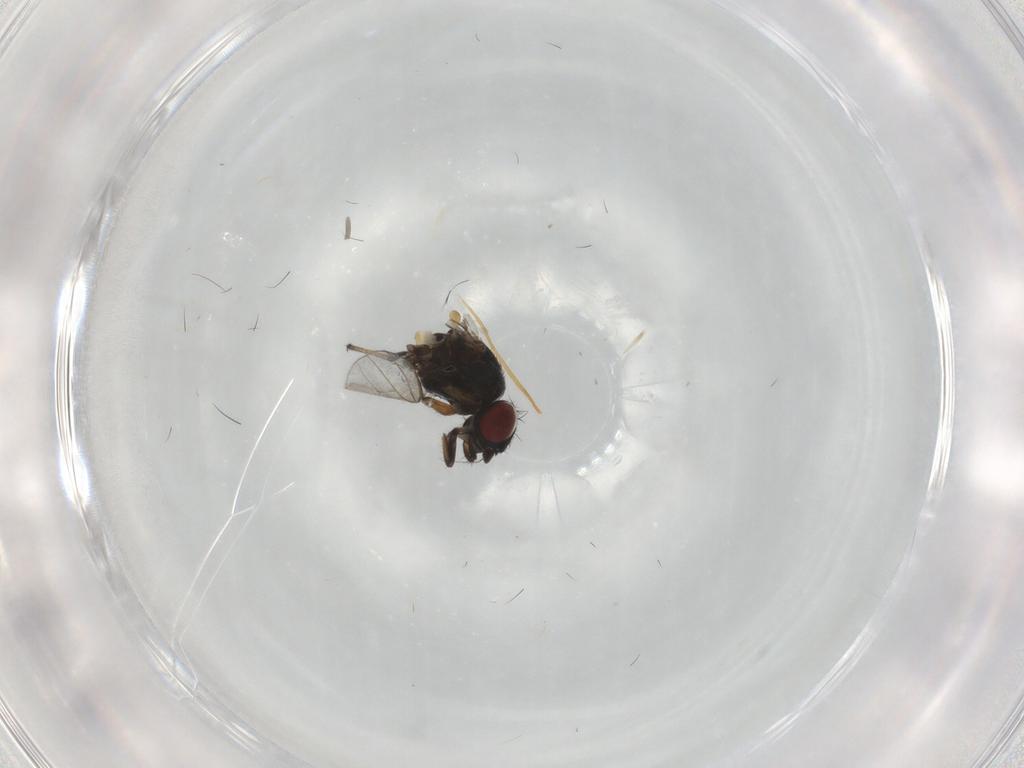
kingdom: Animalia
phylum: Arthropoda
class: Insecta
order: Diptera
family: Milichiidae
